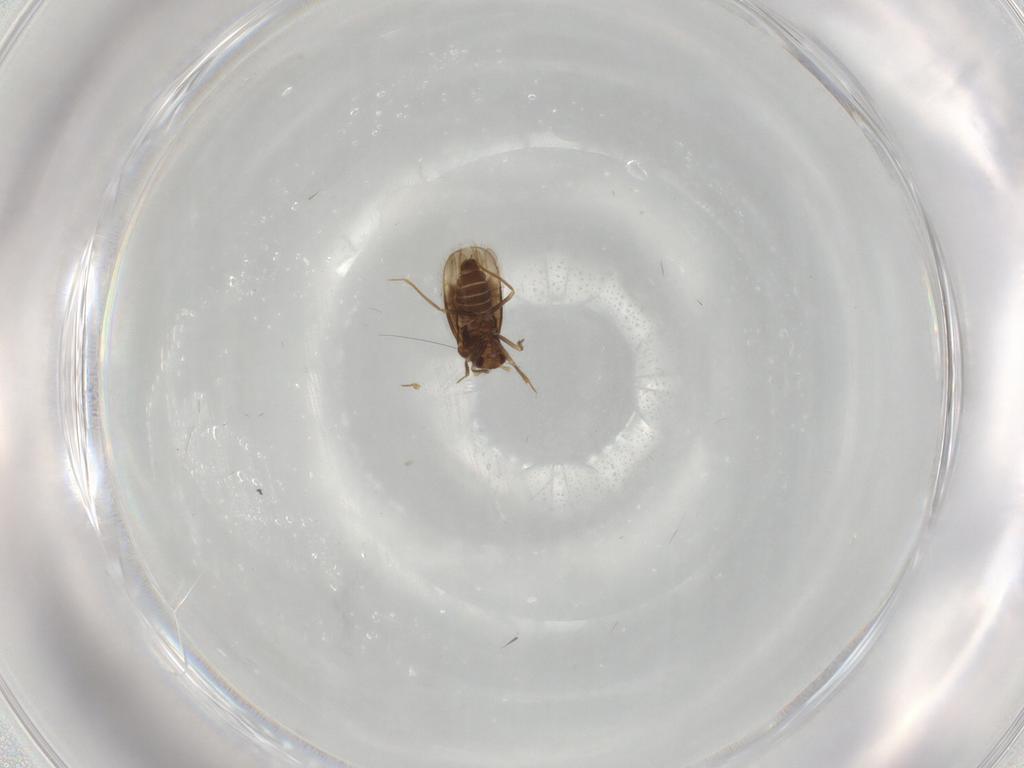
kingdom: Animalia
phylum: Arthropoda
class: Insecta
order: Hemiptera
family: Schizopteridae
